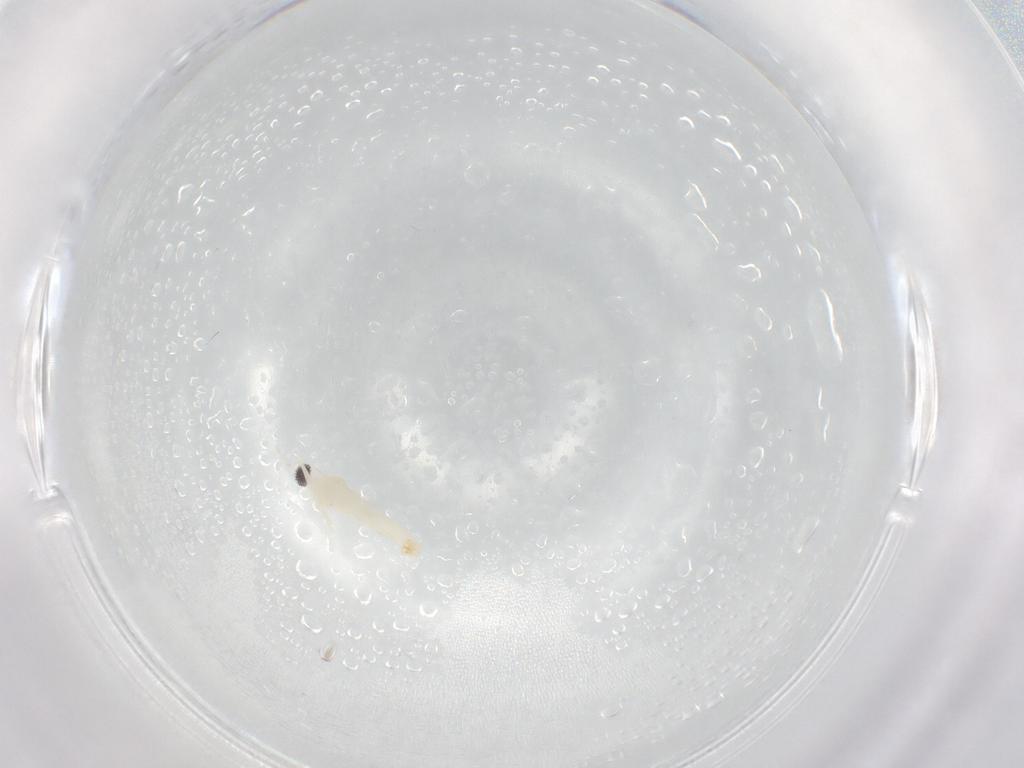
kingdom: Animalia
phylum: Arthropoda
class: Insecta
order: Diptera
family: Cecidomyiidae
